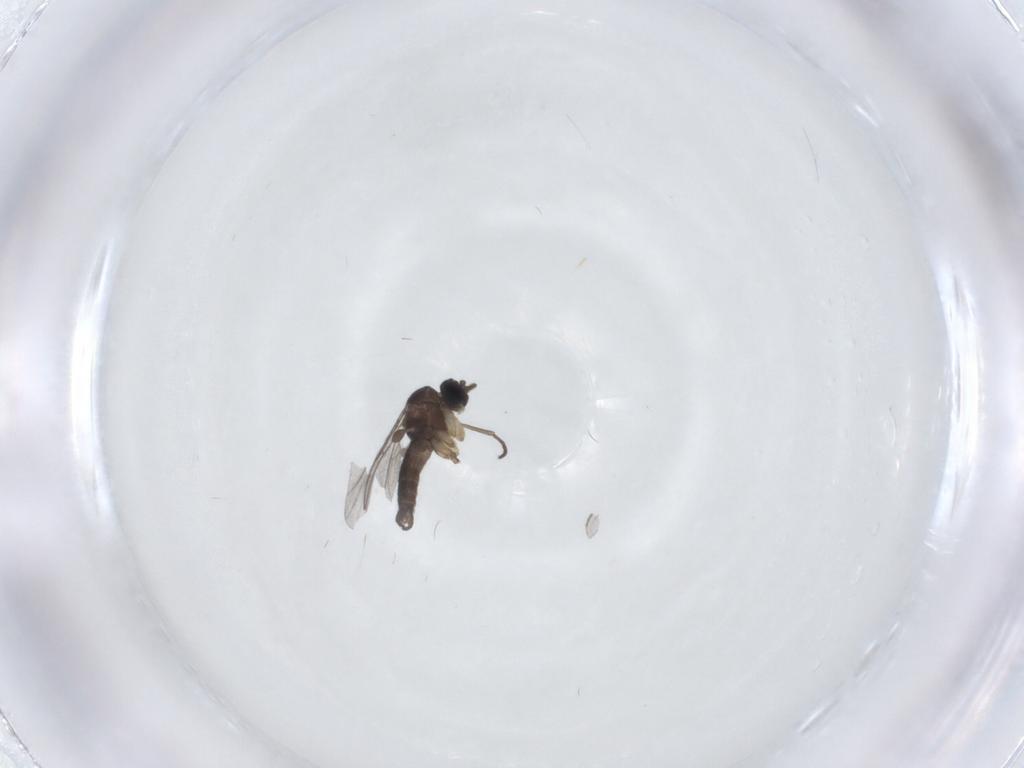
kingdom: Animalia
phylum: Arthropoda
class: Insecta
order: Diptera
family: Sciaridae
